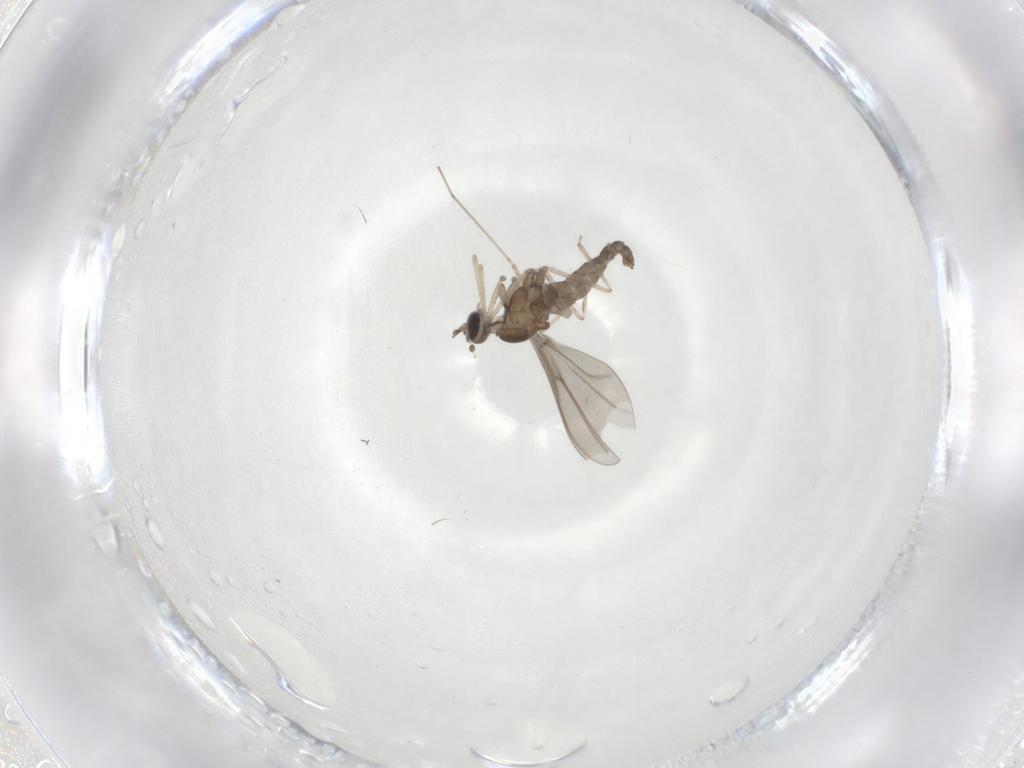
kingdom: Animalia
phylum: Arthropoda
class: Insecta
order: Diptera
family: Cecidomyiidae
